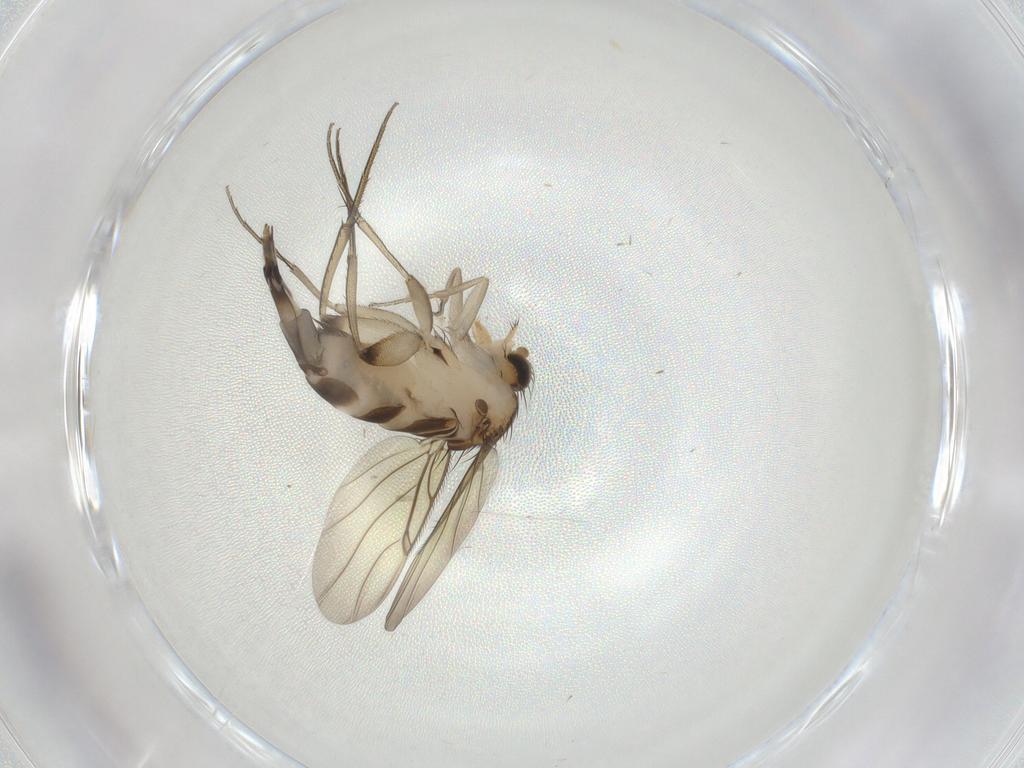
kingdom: Animalia
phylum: Arthropoda
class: Insecta
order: Diptera
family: Phoridae
